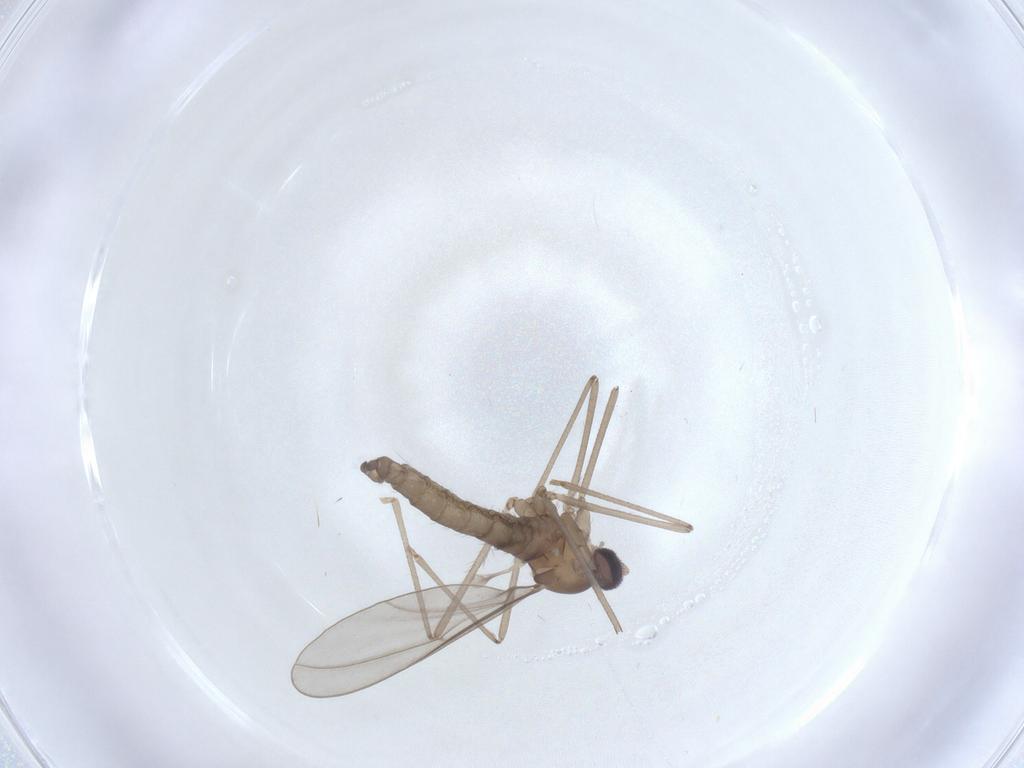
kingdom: Animalia
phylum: Arthropoda
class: Insecta
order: Diptera
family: Cecidomyiidae
